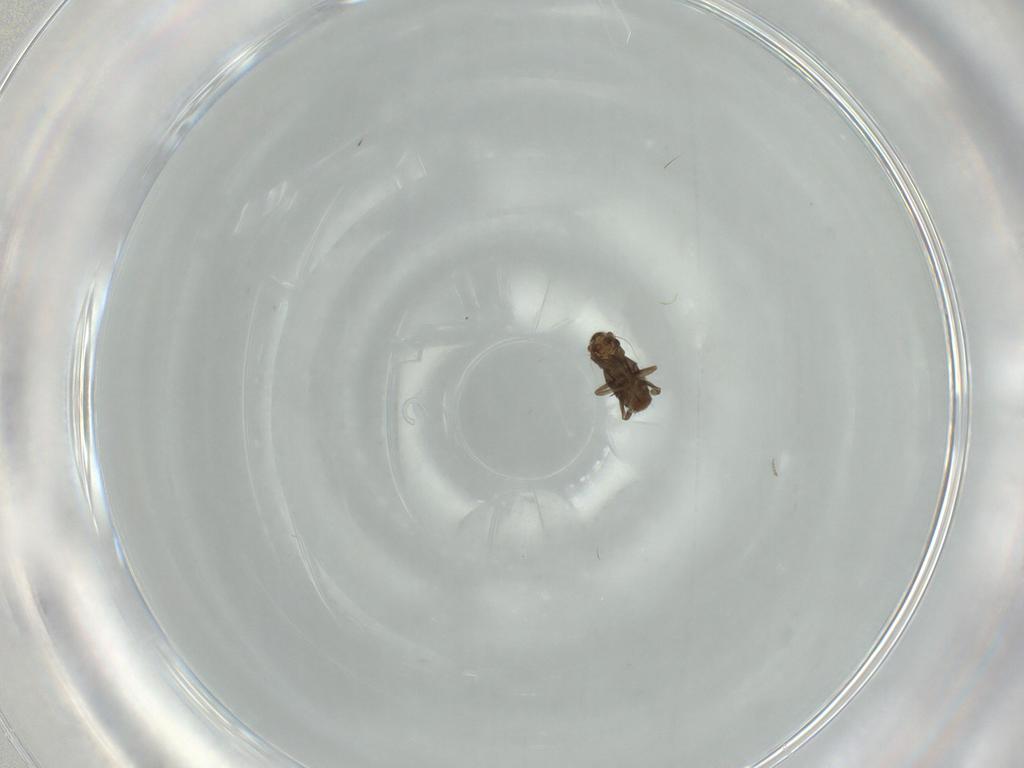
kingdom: Animalia
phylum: Arthropoda
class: Insecta
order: Diptera
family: Phoridae
